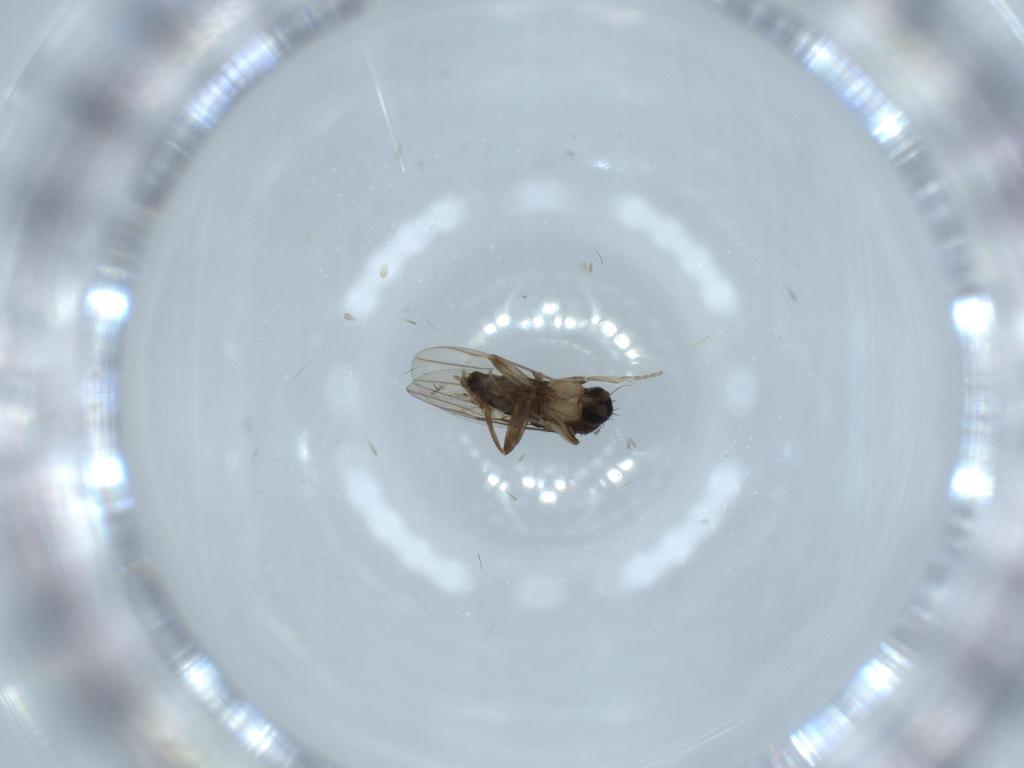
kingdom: Animalia
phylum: Arthropoda
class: Insecta
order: Diptera
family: Phoridae
